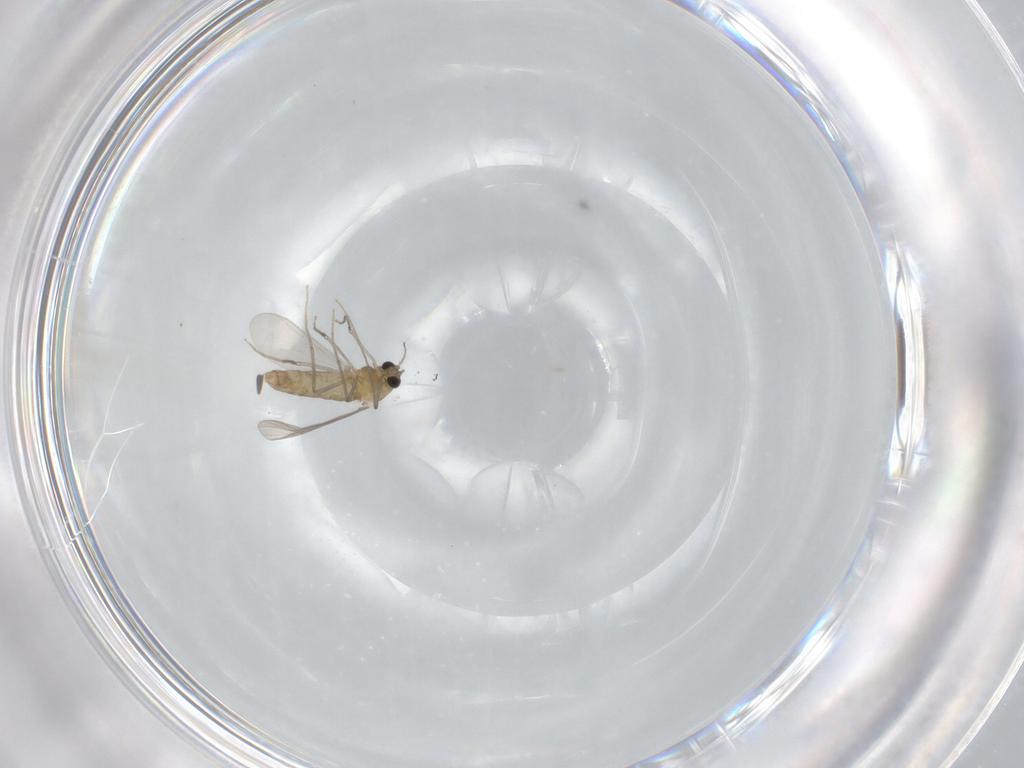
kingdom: Animalia
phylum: Arthropoda
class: Insecta
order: Diptera
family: Chironomidae
